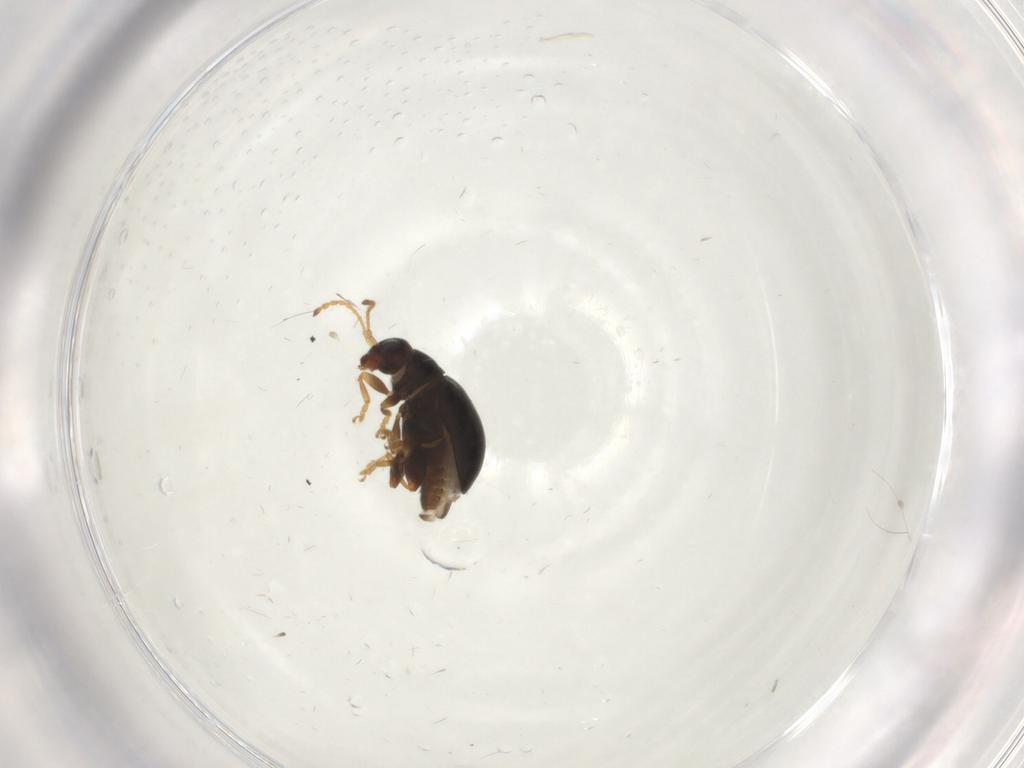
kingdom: Animalia
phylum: Arthropoda
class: Insecta
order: Coleoptera
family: Chrysomelidae
